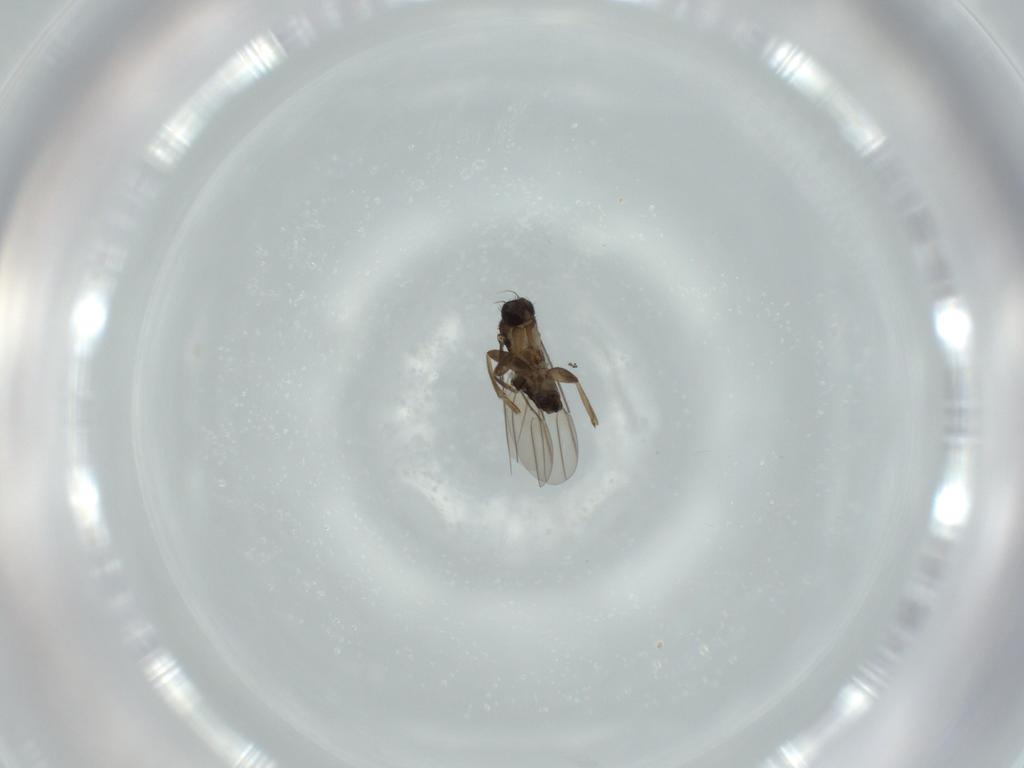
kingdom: Animalia
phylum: Arthropoda
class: Insecta
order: Diptera
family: Phoridae
